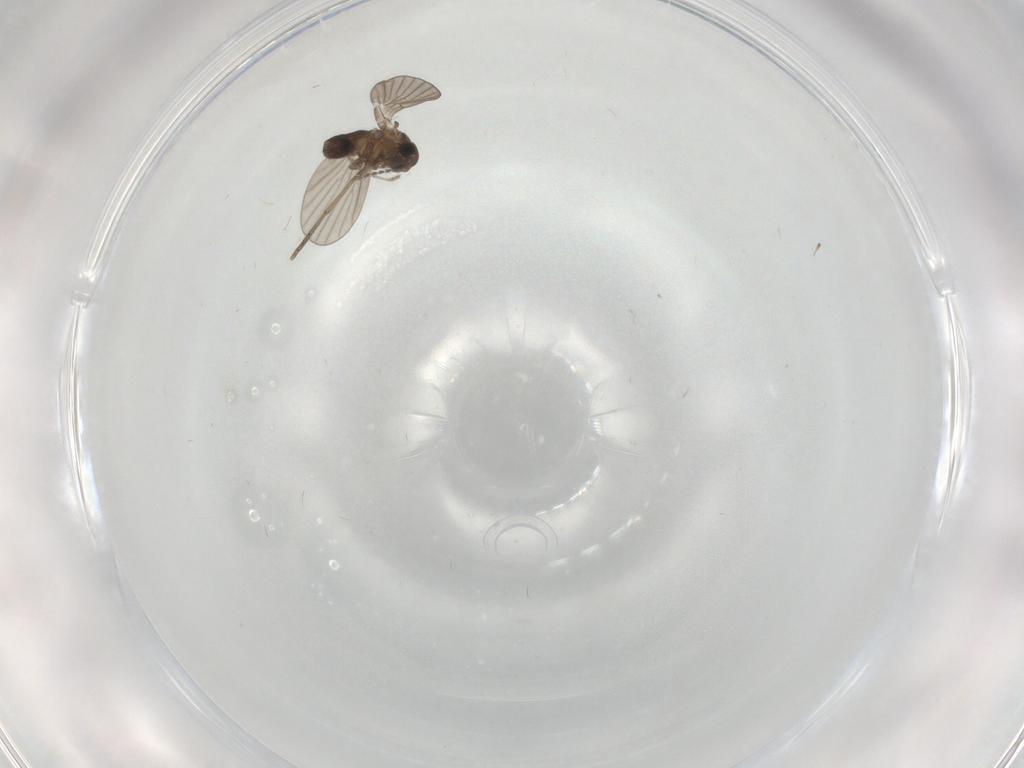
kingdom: Animalia
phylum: Arthropoda
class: Insecta
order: Diptera
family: Chironomidae
